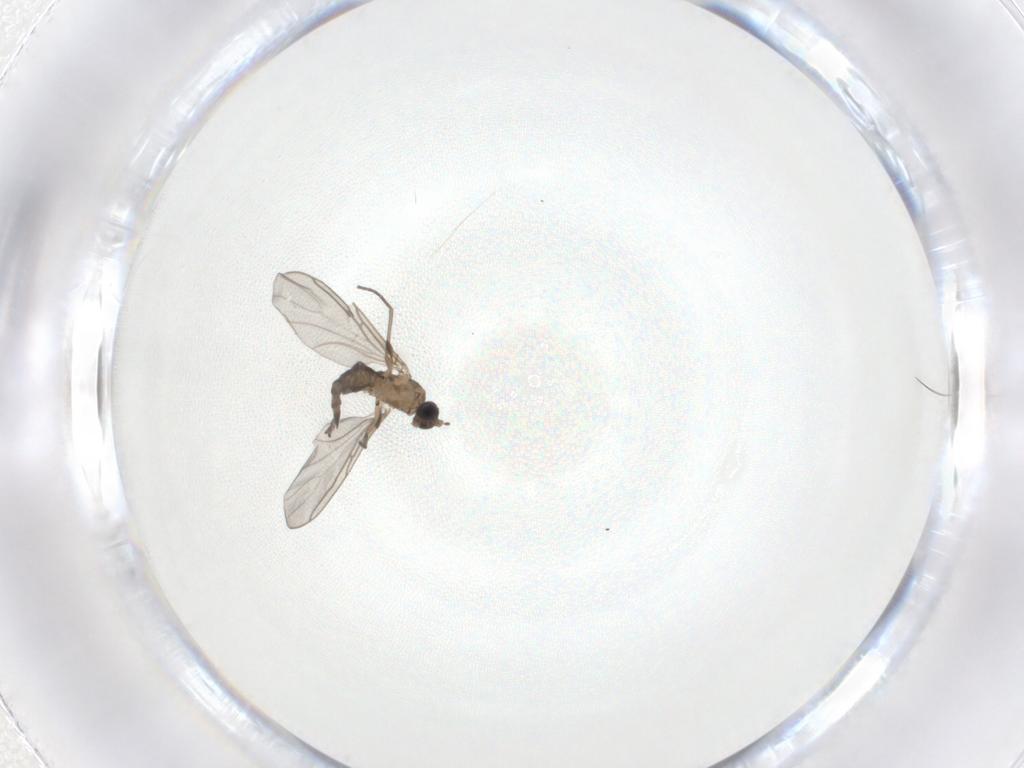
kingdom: Animalia
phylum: Arthropoda
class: Insecta
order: Diptera
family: Sciaridae
